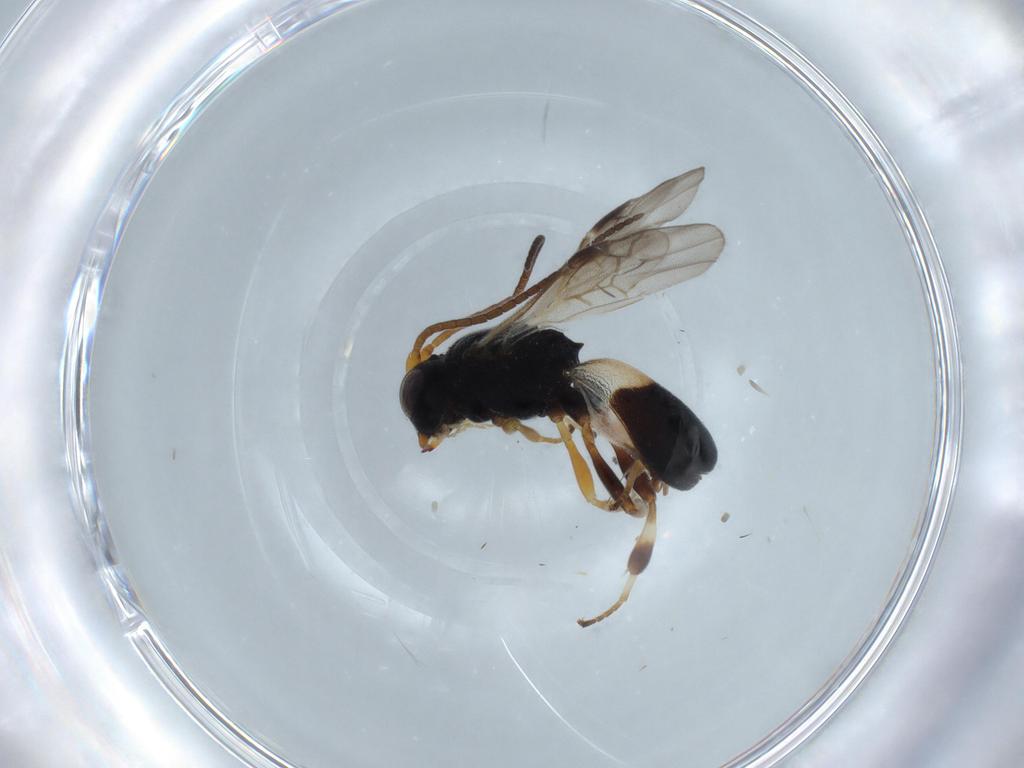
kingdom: Animalia
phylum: Arthropoda
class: Insecta
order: Hymenoptera
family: Braconidae
